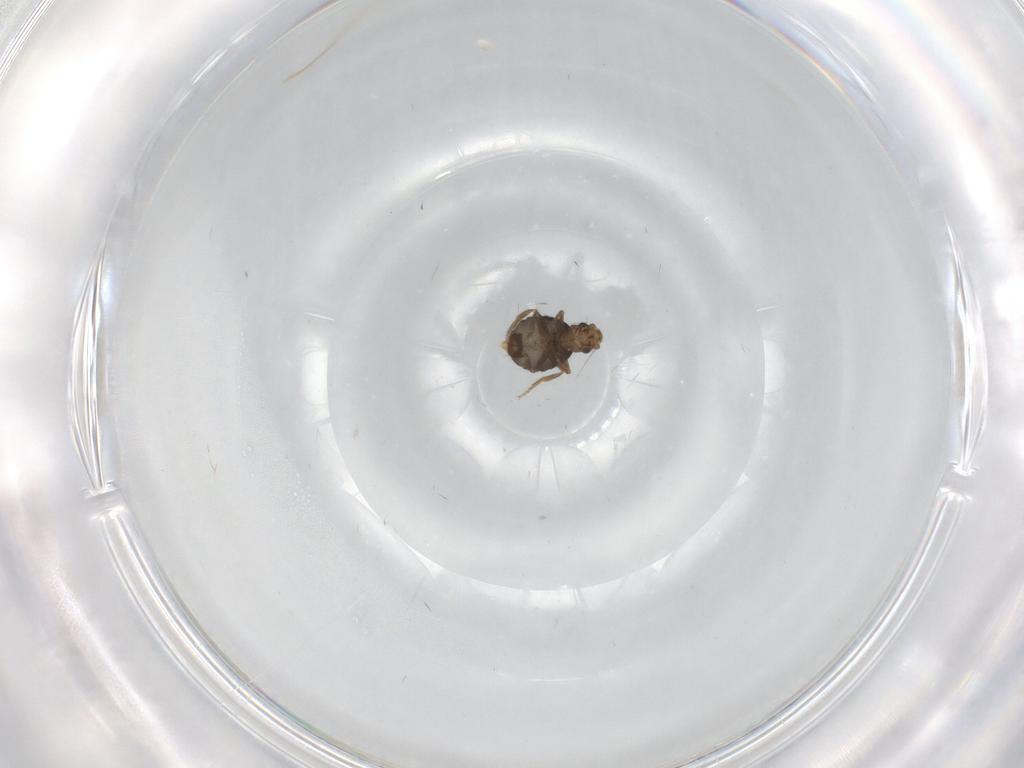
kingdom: Animalia
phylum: Arthropoda
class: Insecta
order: Diptera
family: Phoridae
